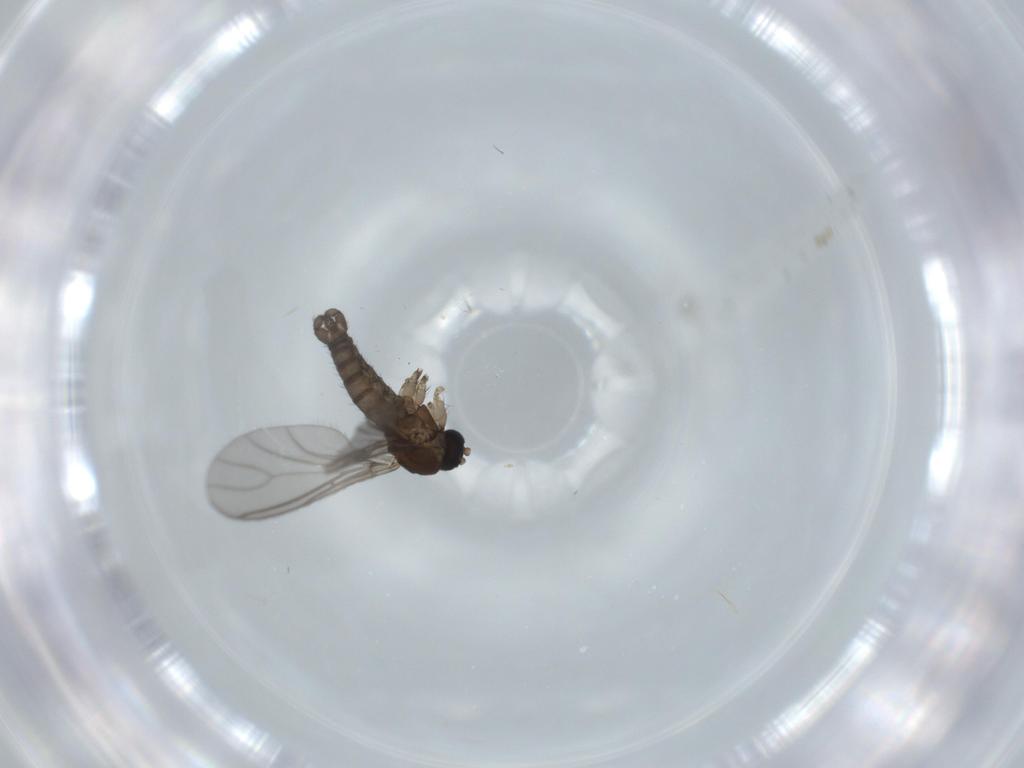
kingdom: Animalia
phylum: Arthropoda
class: Insecta
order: Diptera
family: Sciaridae
